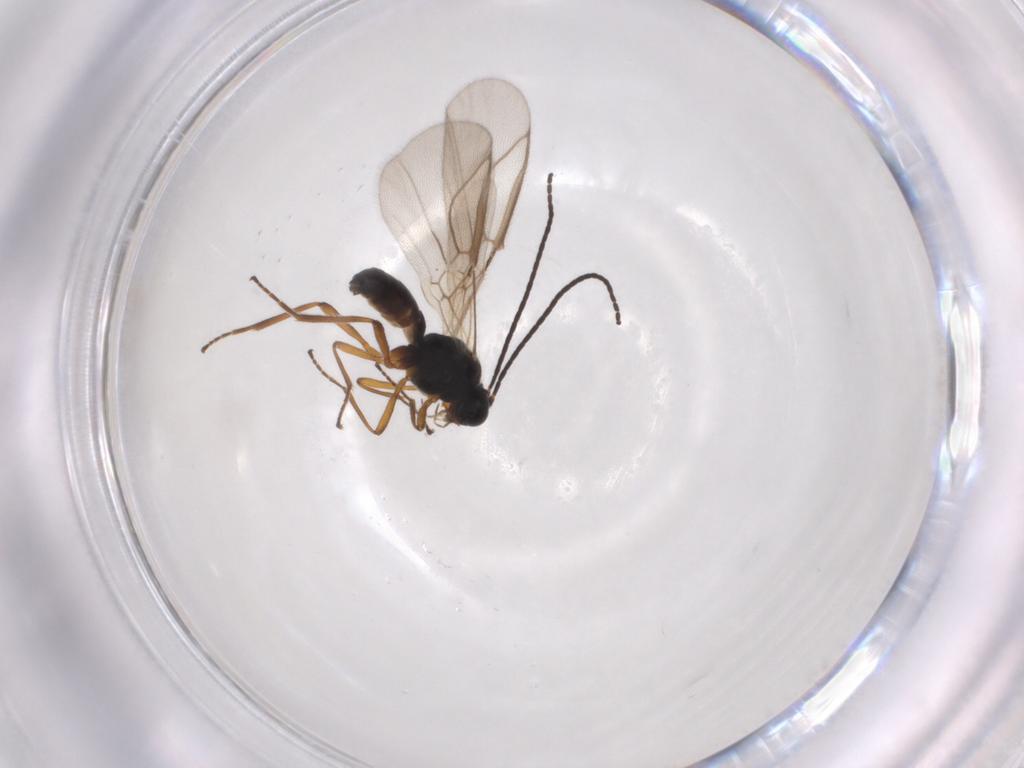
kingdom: Animalia
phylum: Arthropoda
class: Insecta
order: Hymenoptera
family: Braconidae
